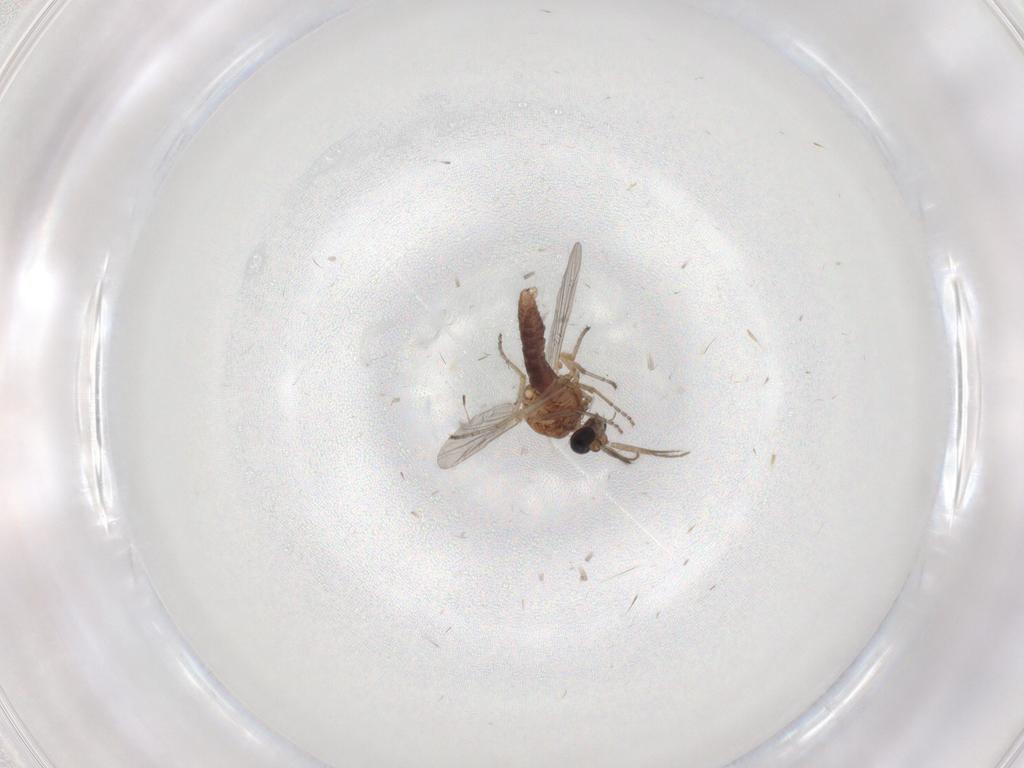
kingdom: Animalia
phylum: Arthropoda
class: Insecta
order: Diptera
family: Ceratopogonidae
